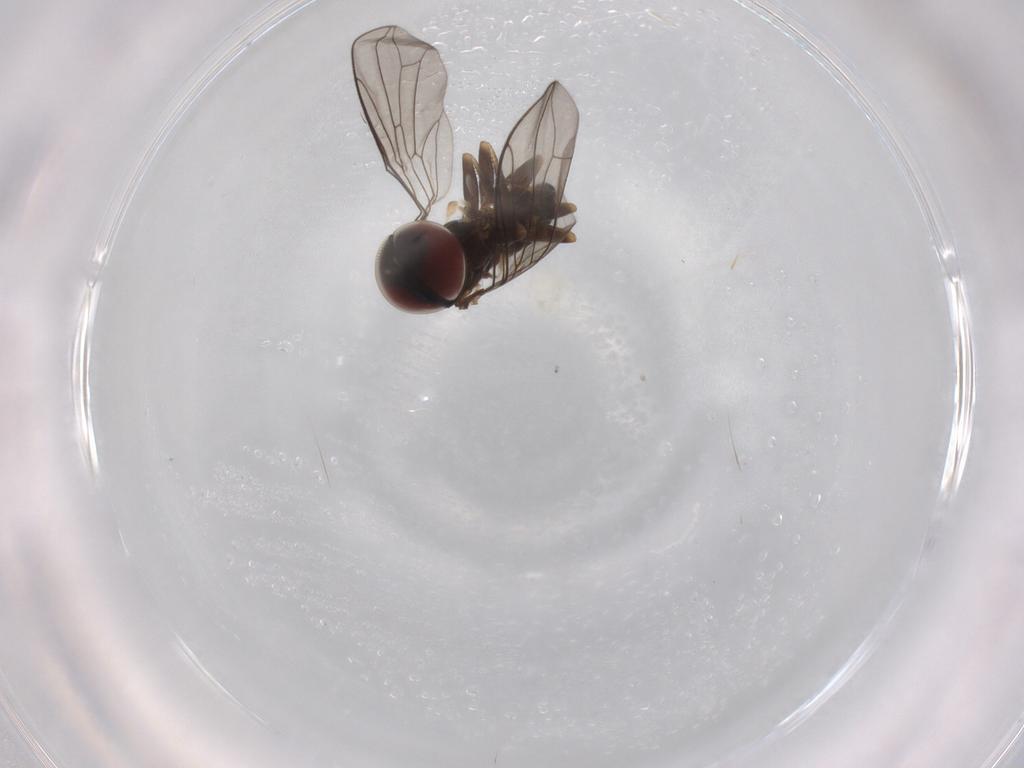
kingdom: Animalia
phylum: Arthropoda
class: Insecta
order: Diptera
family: Pipunculidae
